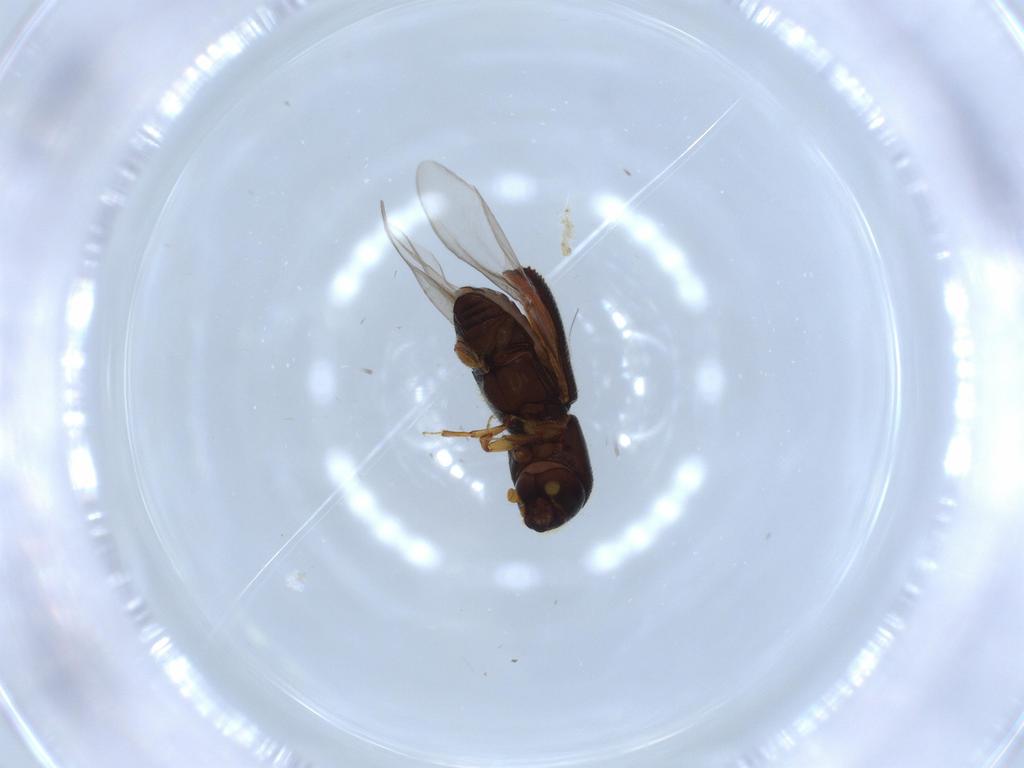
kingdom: Animalia
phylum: Arthropoda
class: Insecta
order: Coleoptera
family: Curculionidae
